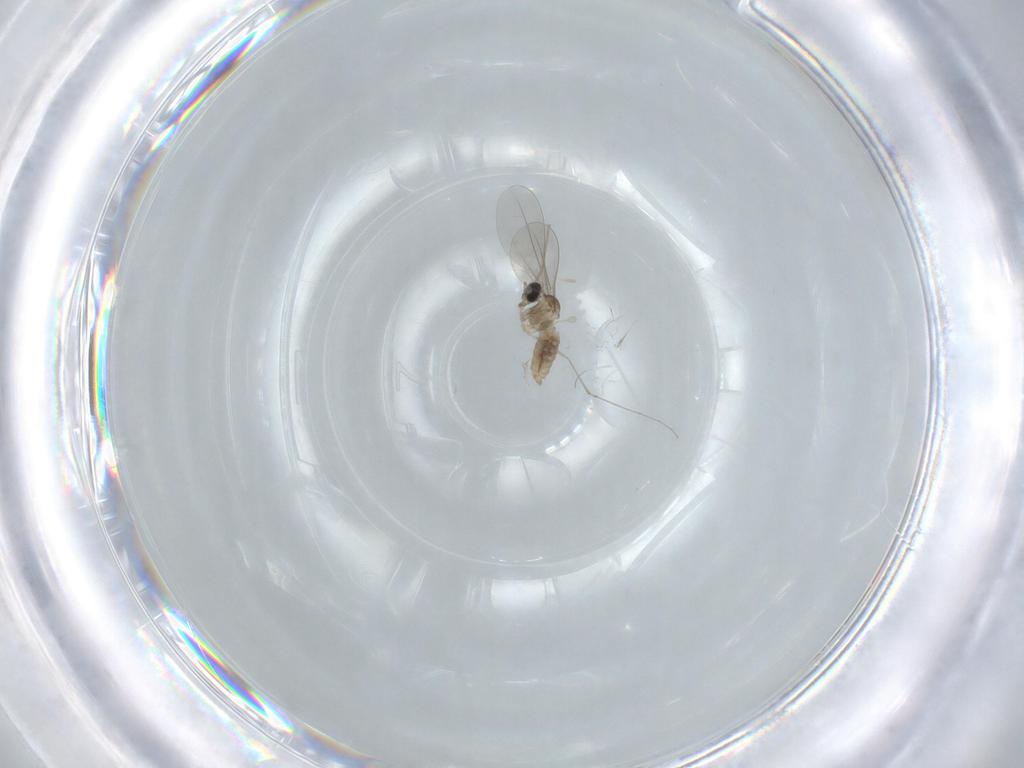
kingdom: Animalia
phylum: Arthropoda
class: Insecta
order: Diptera
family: Cecidomyiidae
